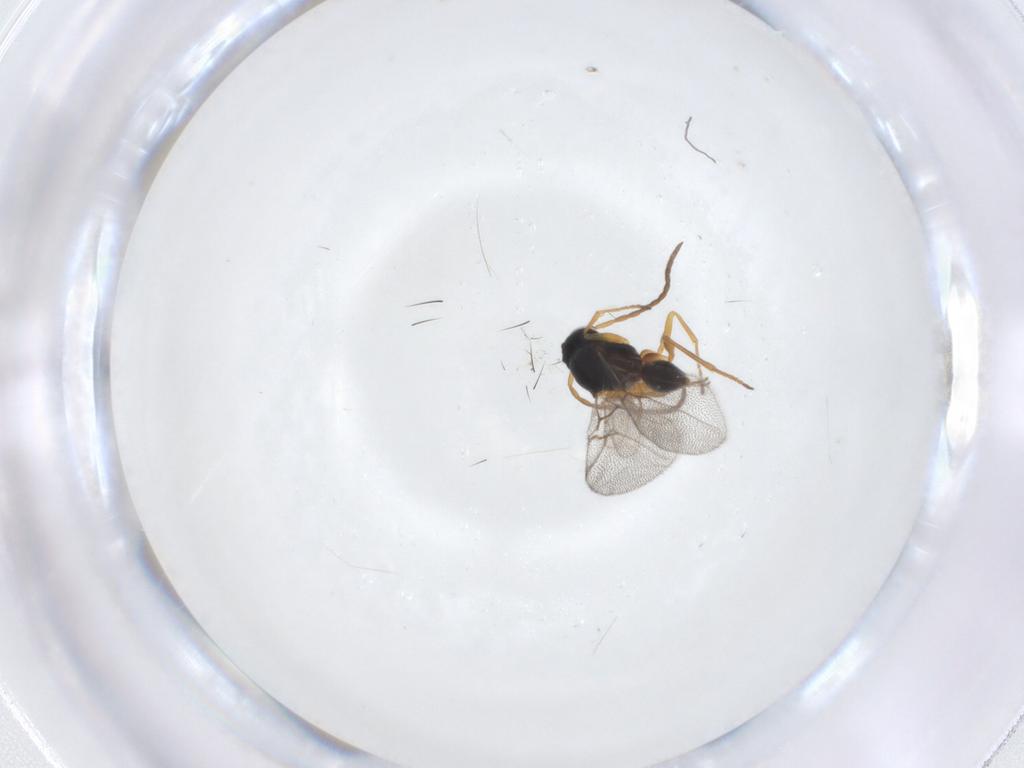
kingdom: Animalia
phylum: Arthropoda
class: Insecta
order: Hymenoptera
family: Cynipidae
